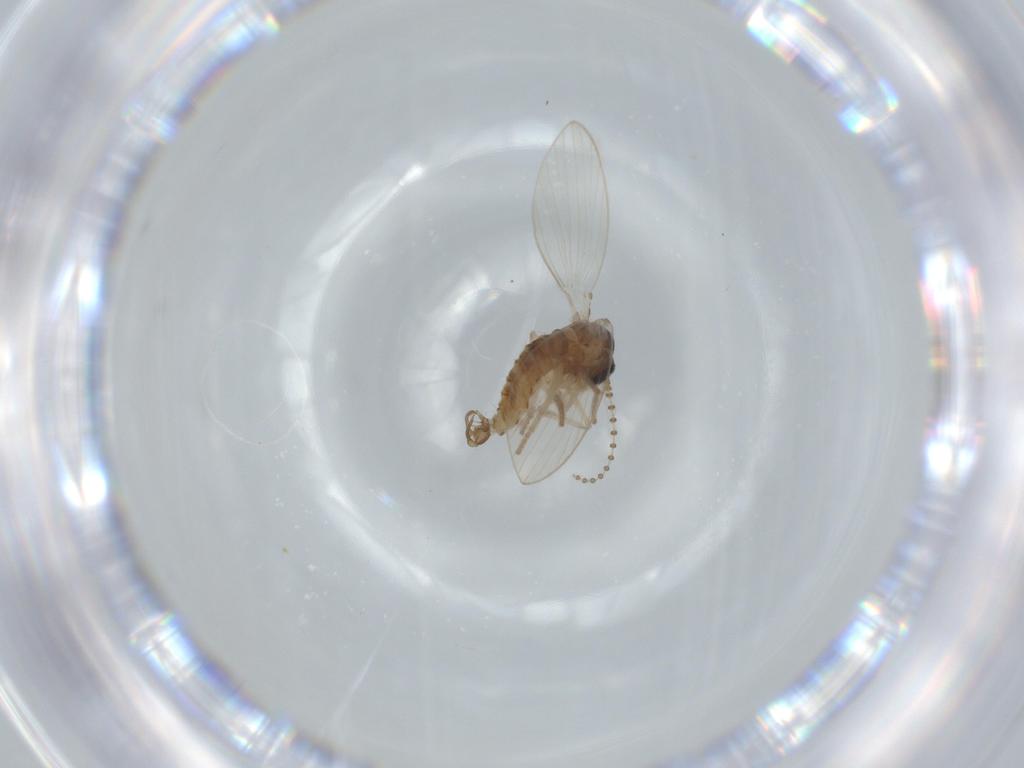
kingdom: Animalia
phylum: Arthropoda
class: Insecta
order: Diptera
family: Psychodidae
